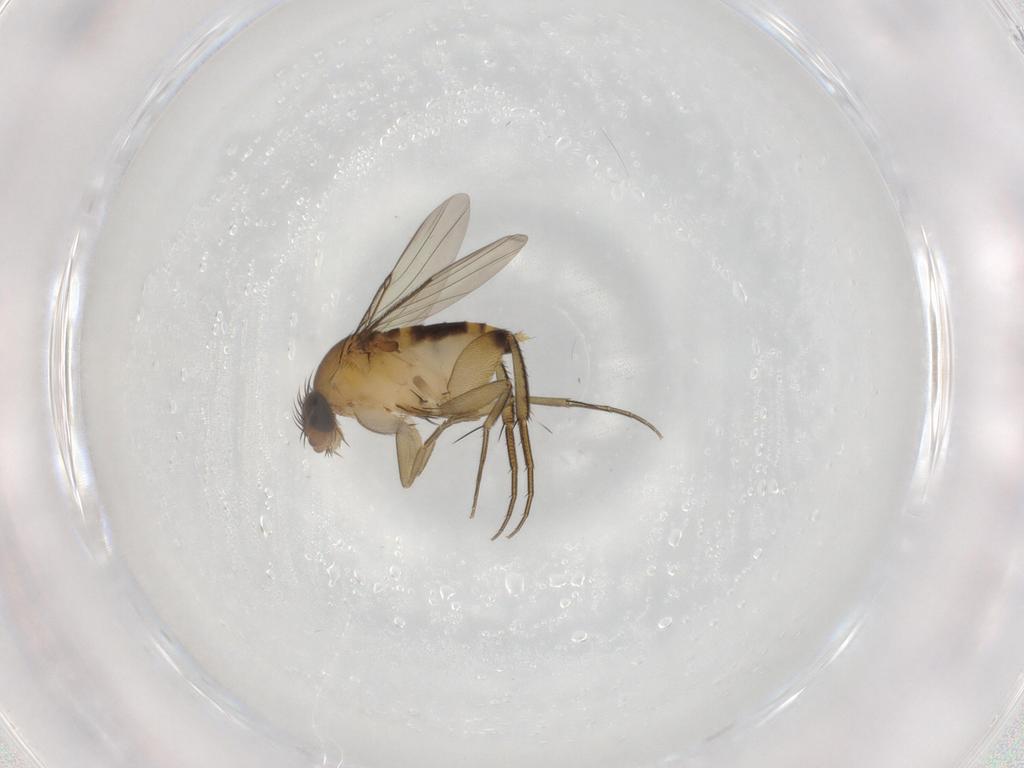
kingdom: Animalia
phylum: Arthropoda
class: Insecta
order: Diptera
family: Phoridae
